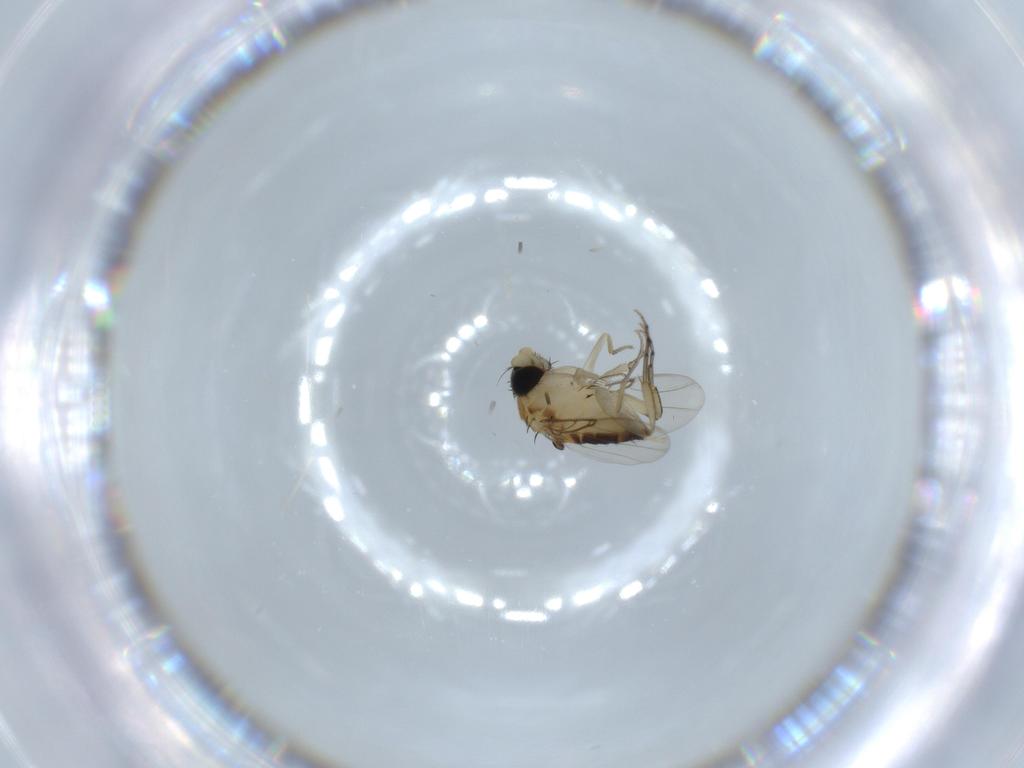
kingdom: Animalia
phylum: Arthropoda
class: Insecta
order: Diptera
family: Phoridae
